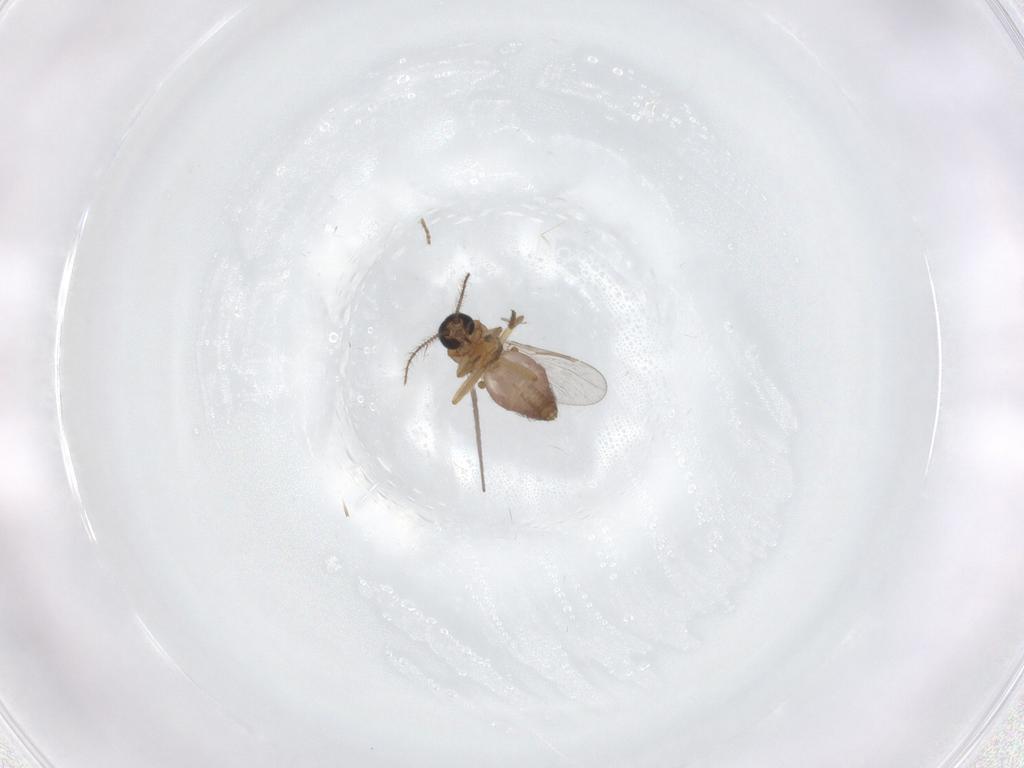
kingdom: Animalia
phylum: Arthropoda
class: Insecta
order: Diptera
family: Ceratopogonidae
